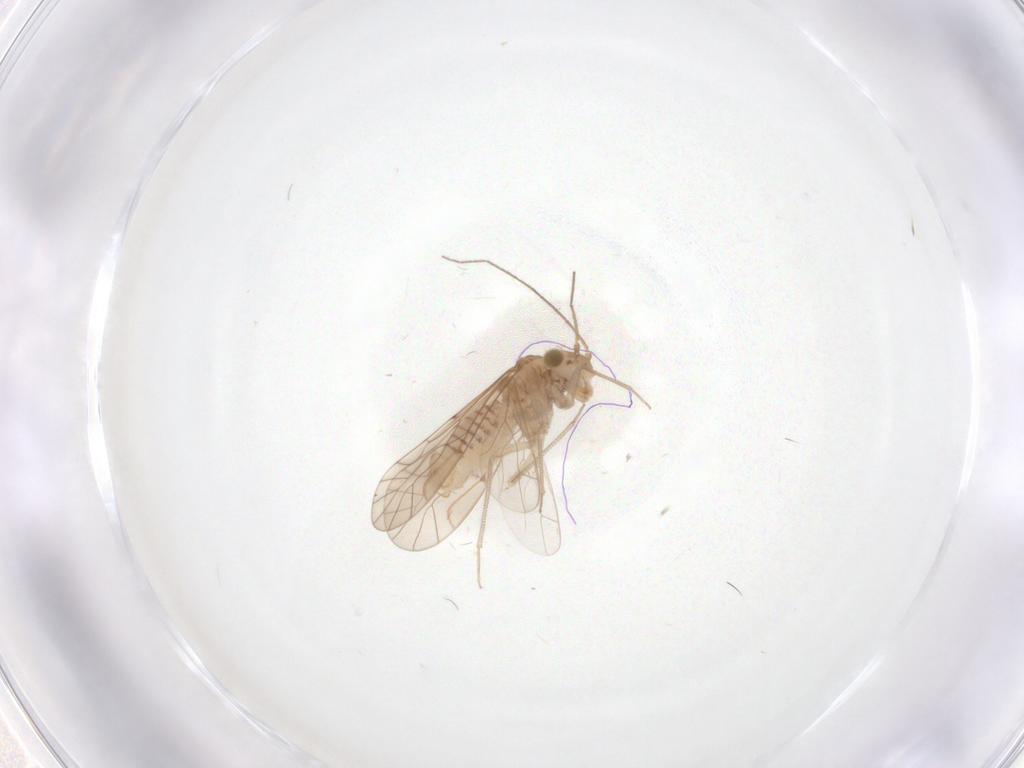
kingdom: Animalia
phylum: Arthropoda
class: Insecta
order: Psocodea
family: Lachesillidae
